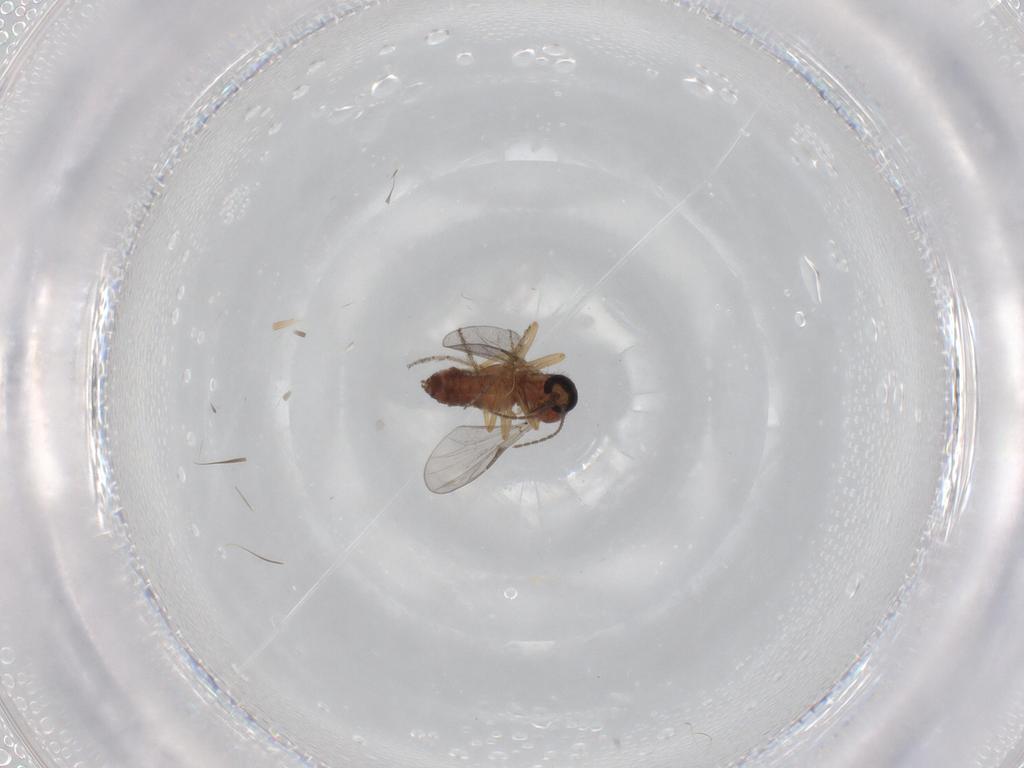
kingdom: Animalia
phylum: Arthropoda
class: Insecta
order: Diptera
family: Ceratopogonidae
